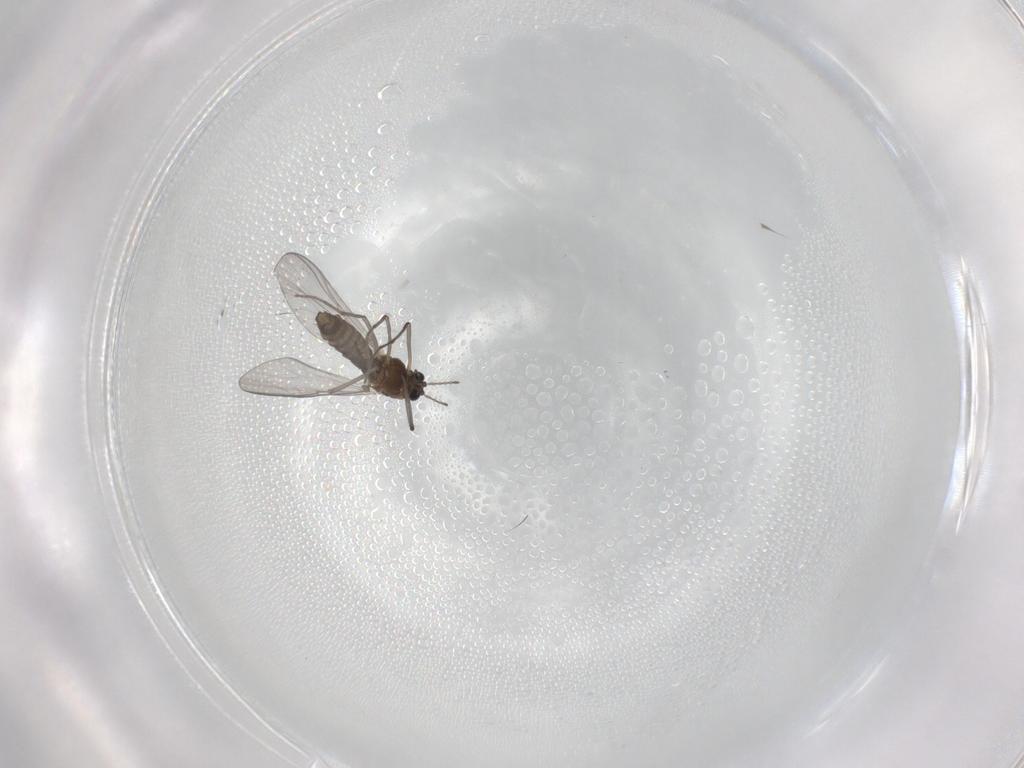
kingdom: Animalia
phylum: Arthropoda
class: Insecta
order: Diptera
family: Chironomidae
